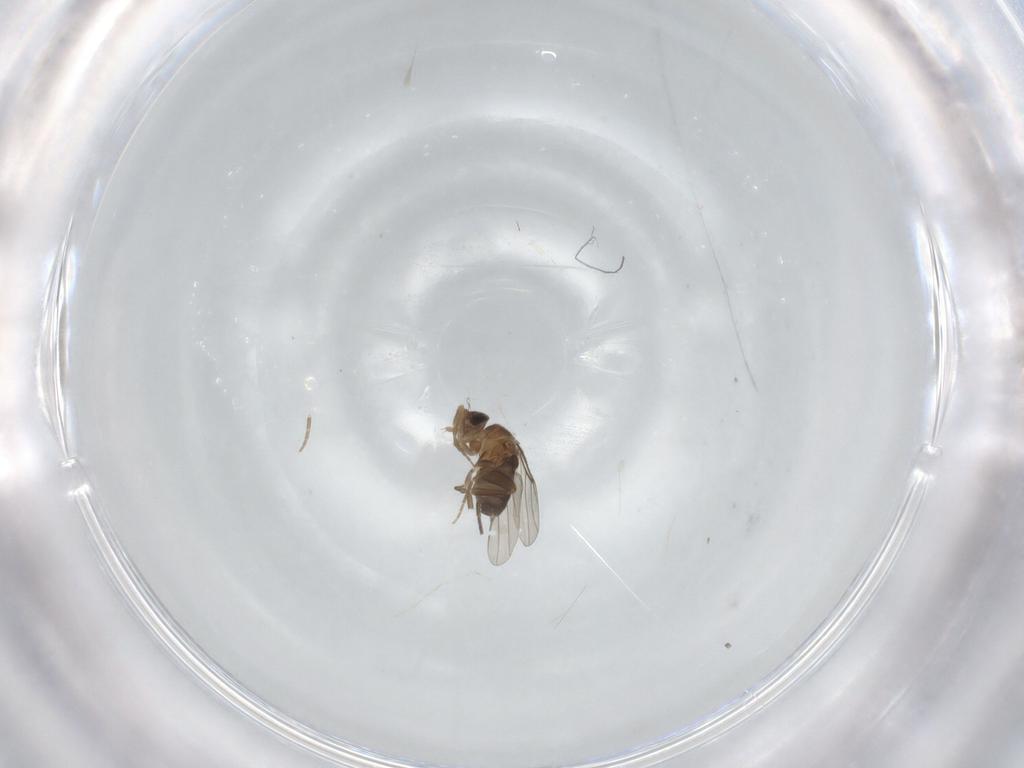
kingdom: Animalia
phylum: Arthropoda
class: Insecta
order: Diptera
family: Phoridae
